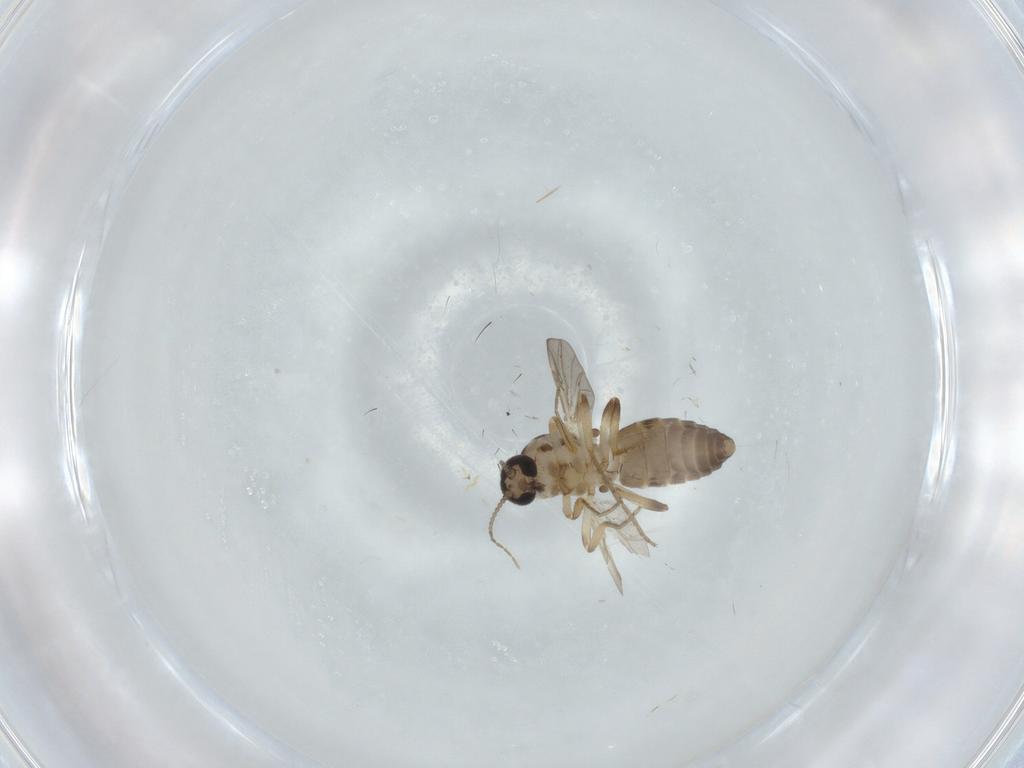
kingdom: Animalia
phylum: Arthropoda
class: Insecta
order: Diptera
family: Ceratopogonidae
